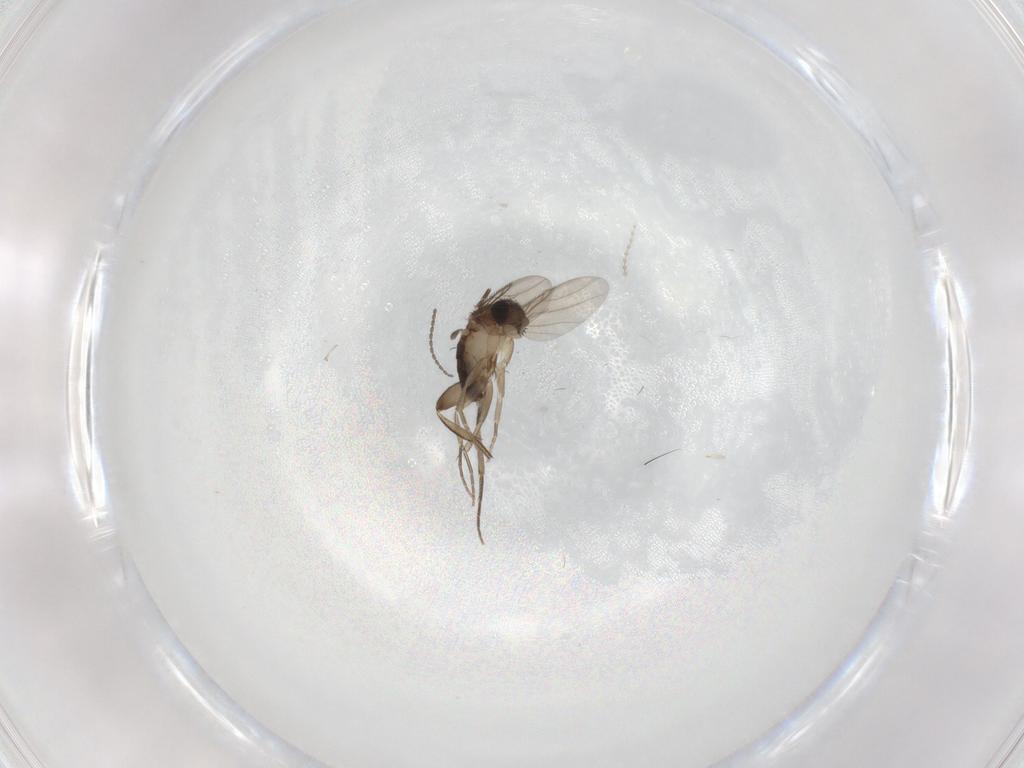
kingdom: Animalia
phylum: Arthropoda
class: Insecta
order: Diptera
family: Phoridae
